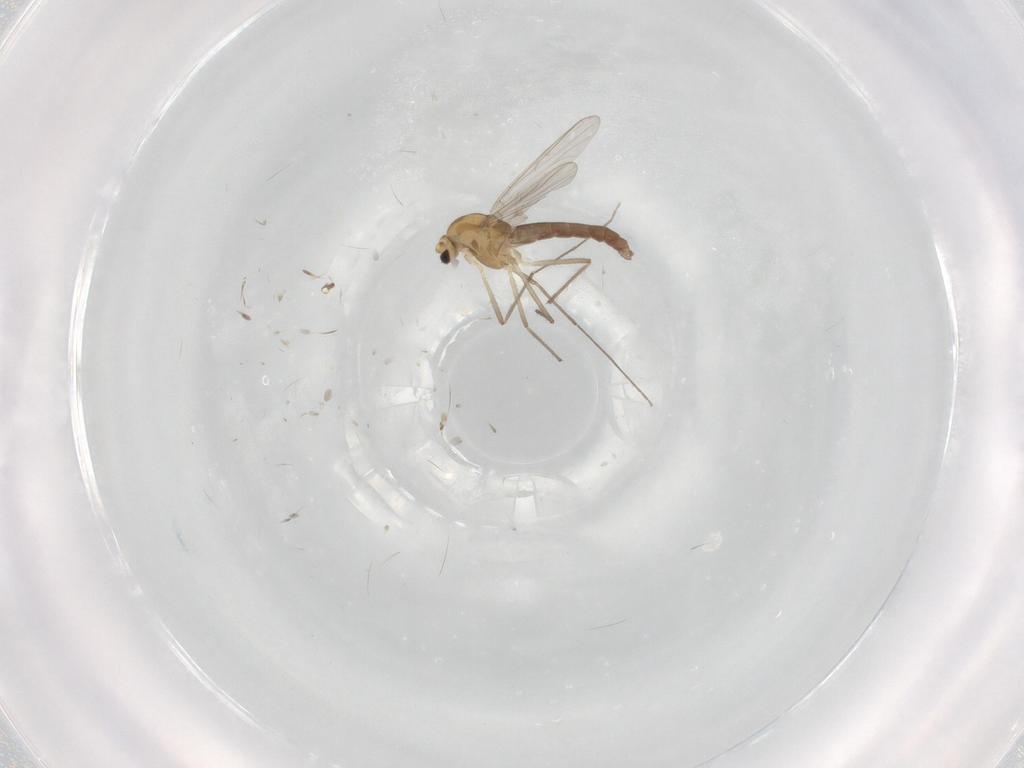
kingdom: Animalia
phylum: Arthropoda
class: Insecta
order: Diptera
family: Chironomidae
